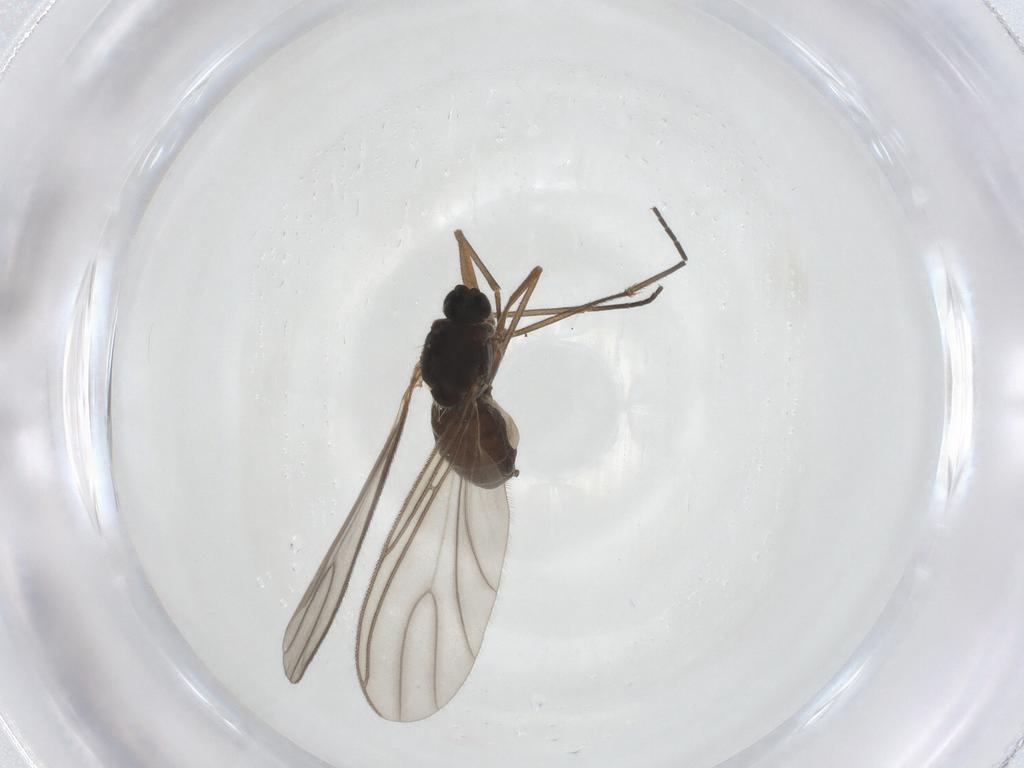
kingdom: Animalia
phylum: Arthropoda
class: Insecta
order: Diptera
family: Sciaridae
